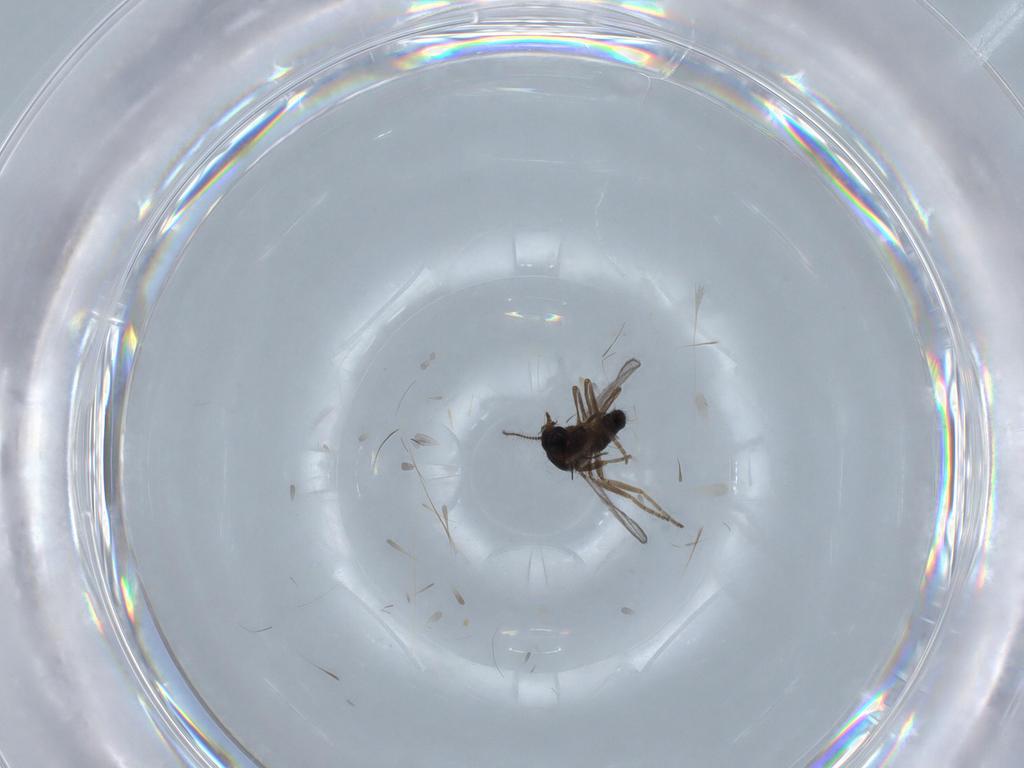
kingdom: Animalia
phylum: Arthropoda
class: Insecta
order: Diptera
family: Ceratopogonidae
